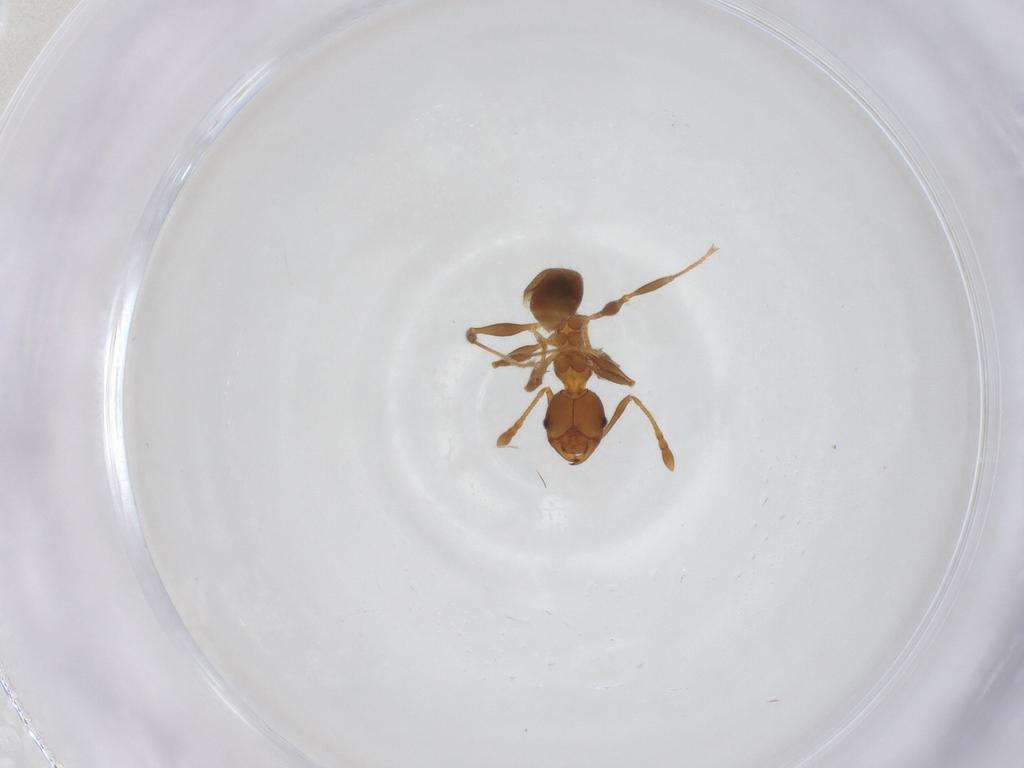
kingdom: Animalia
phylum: Arthropoda
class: Insecta
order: Hymenoptera
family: Formicidae
